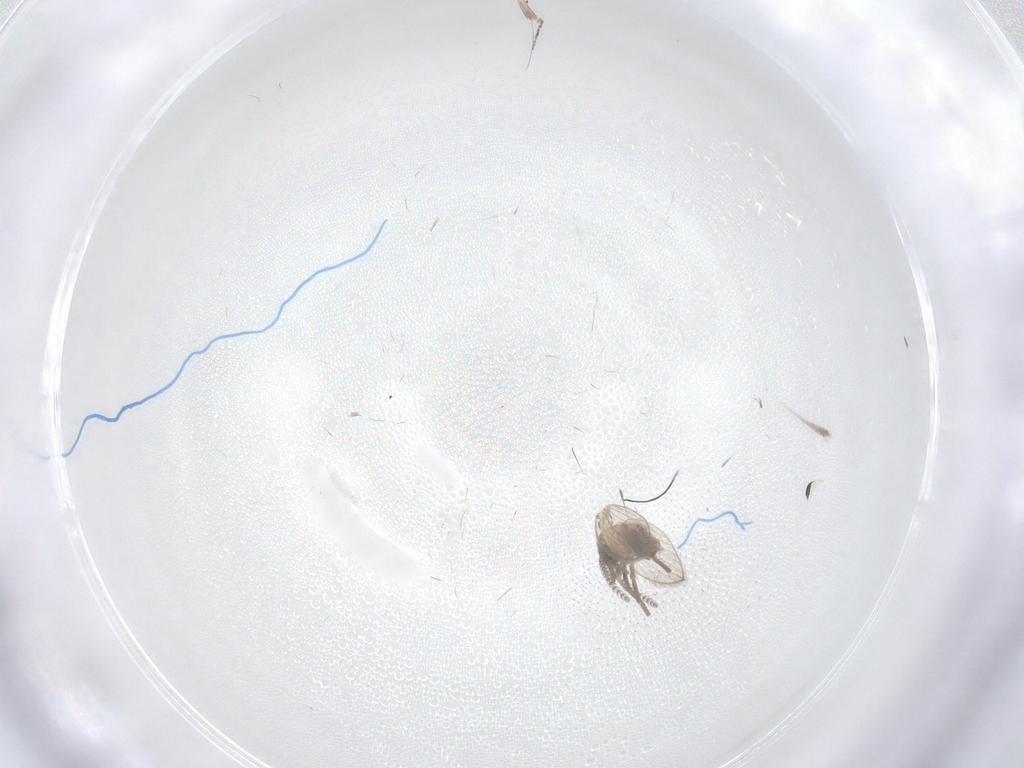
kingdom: Animalia
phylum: Arthropoda
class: Insecta
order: Diptera
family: Psychodidae
